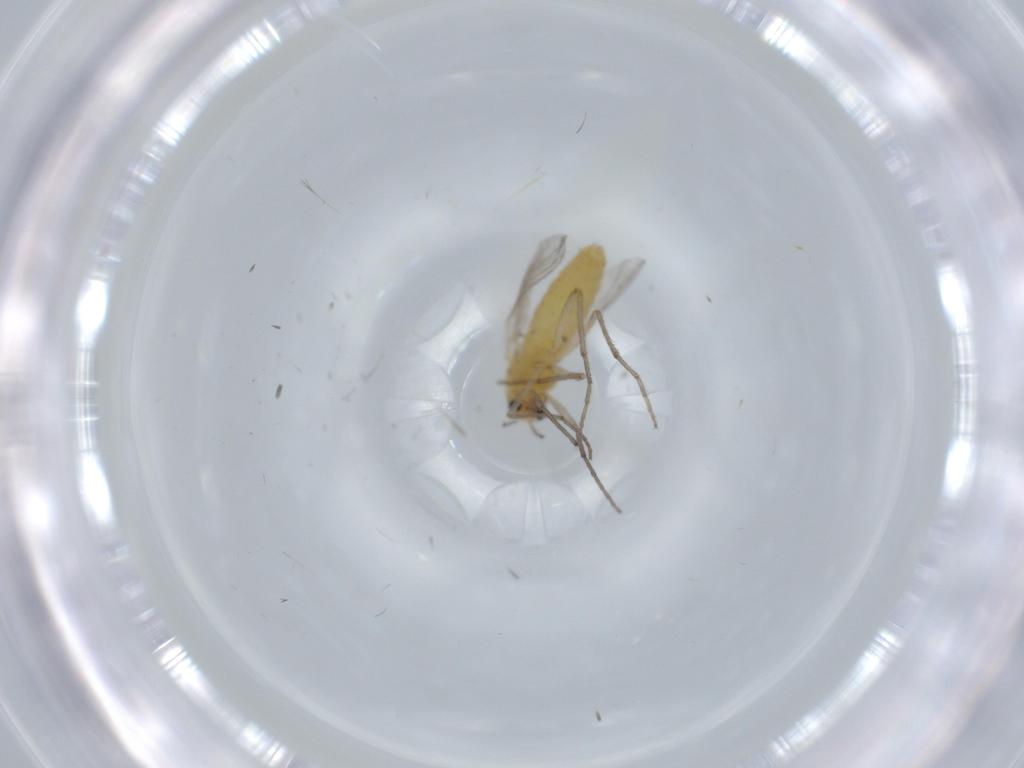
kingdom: Animalia
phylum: Arthropoda
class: Insecta
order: Diptera
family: Chironomidae
